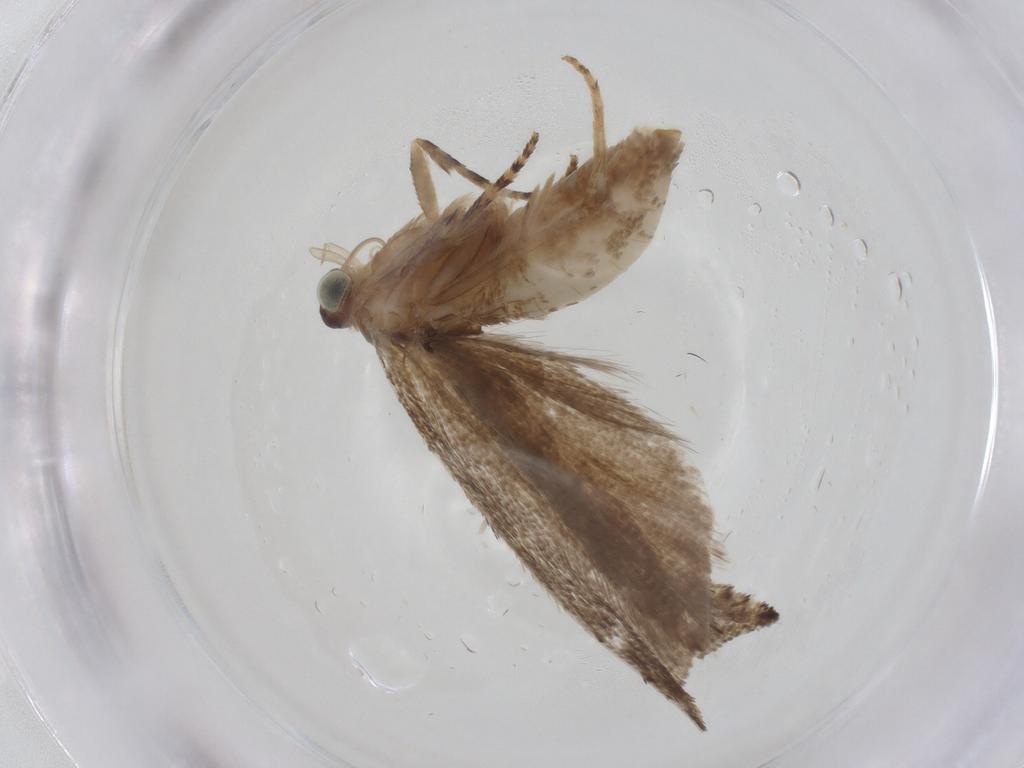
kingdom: Animalia
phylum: Arthropoda
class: Insecta
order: Lepidoptera
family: Tortricidae
